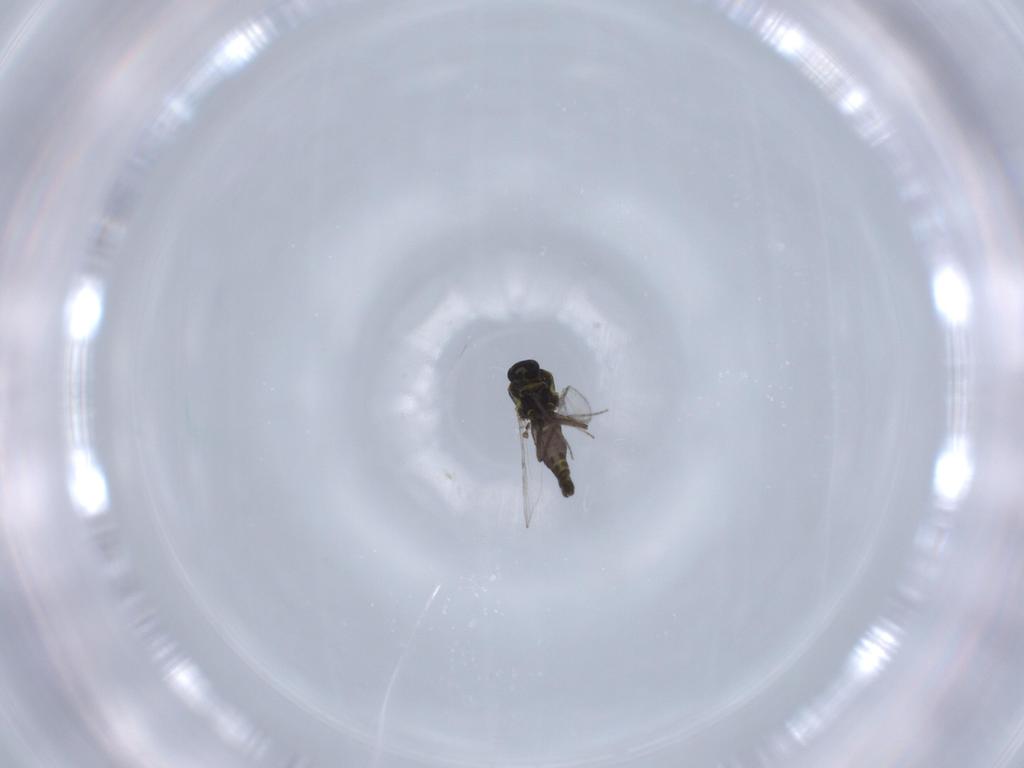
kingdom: Animalia
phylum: Arthropoda
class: Insecta
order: Diptera
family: Ceratopogonidae
